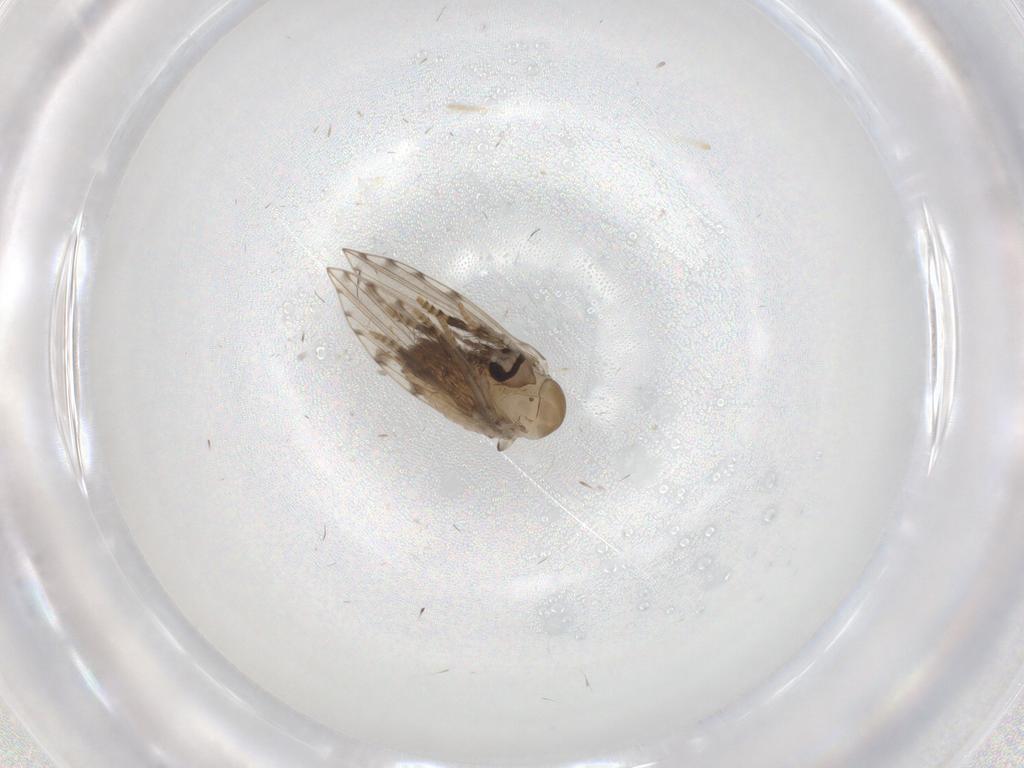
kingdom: Animalia
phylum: Arthropoda
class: Insecta
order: Diptera
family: Psychodidae
